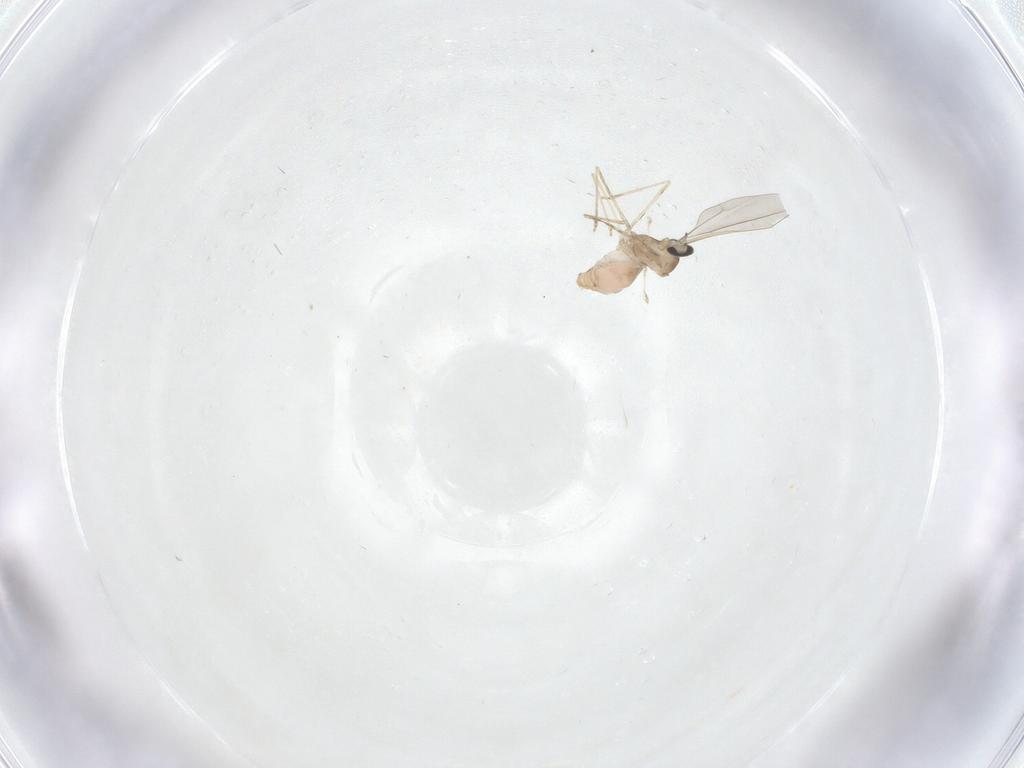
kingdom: Animalia
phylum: Arthropoda
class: Insecta
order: Diptera
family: Keroplatidae
